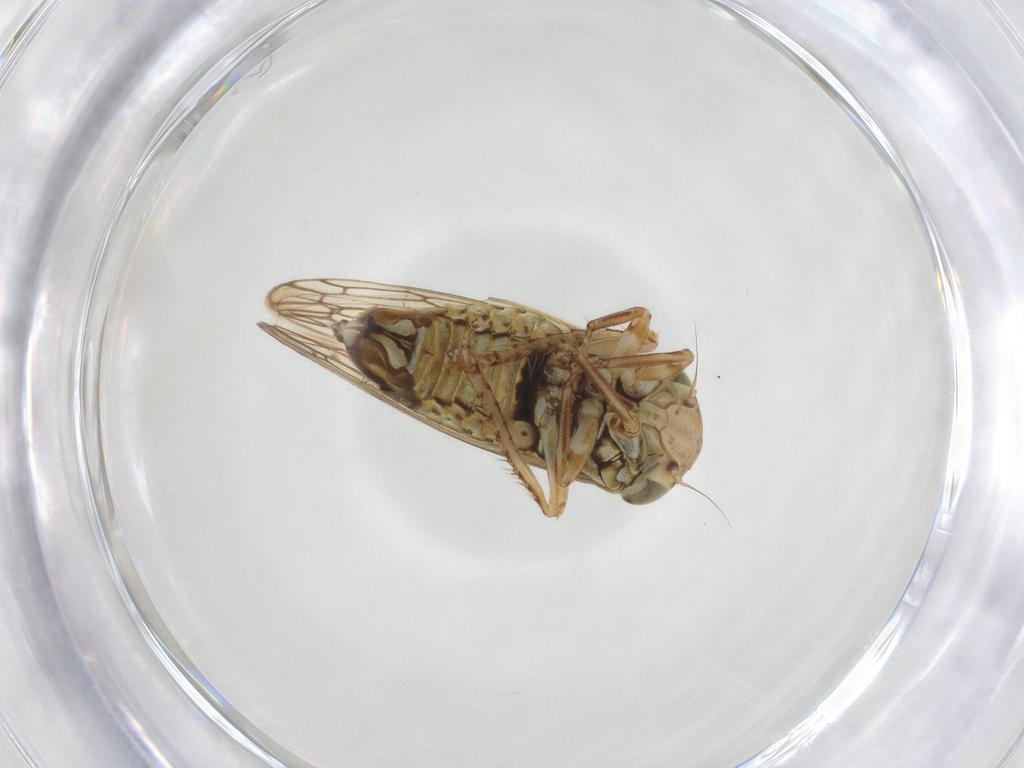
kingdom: Animalia
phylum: Arthropoda
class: Insecta
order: Hemiptera
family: Cicadellidae
